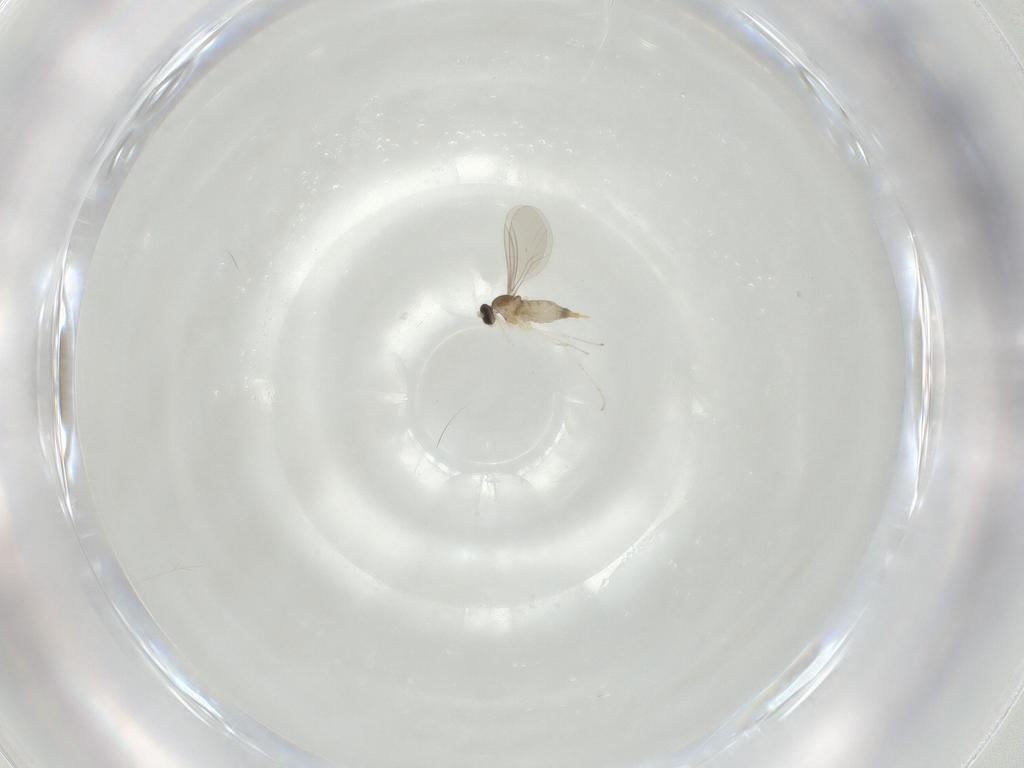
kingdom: Animalia
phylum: Arthropoda
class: Insecta
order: Diptera
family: Cecidomyiidae
